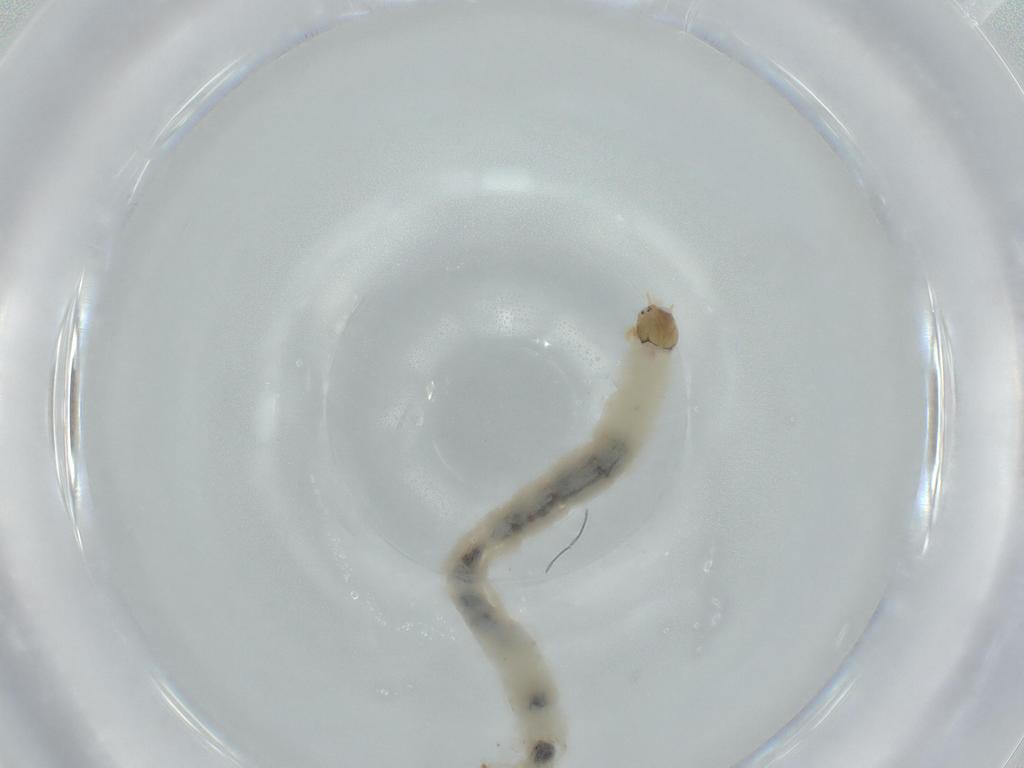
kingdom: Animalia
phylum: Arthropoda
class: Insecta
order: Diptera
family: Chironomidae
